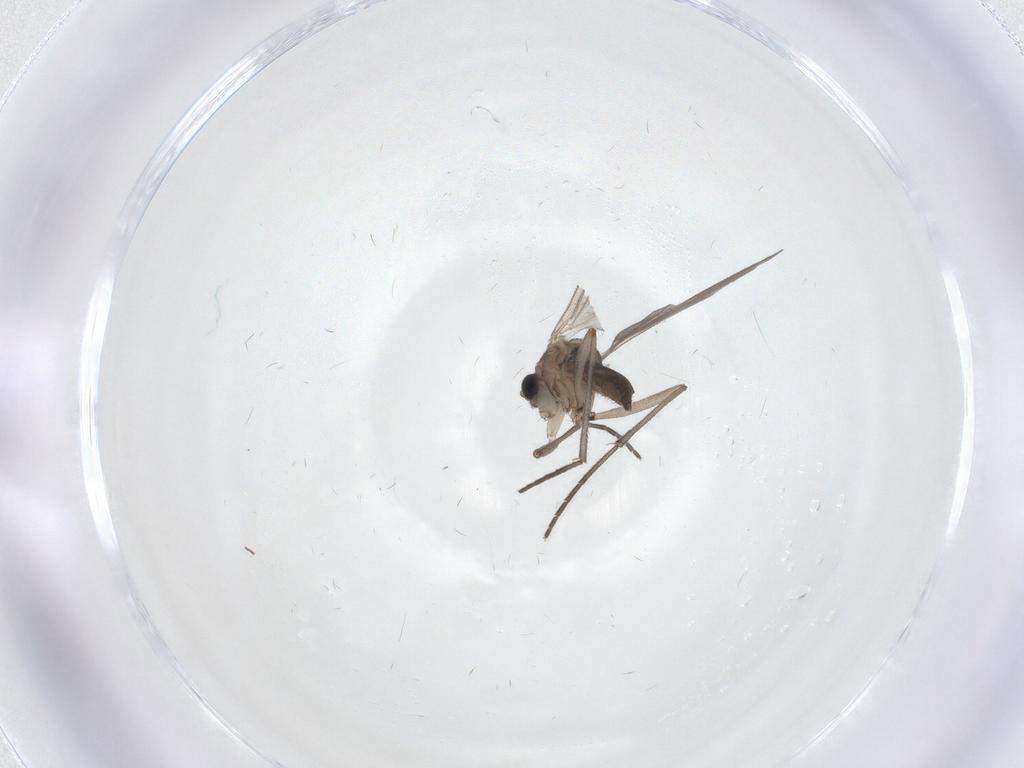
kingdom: Animalia
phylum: Arthropoda
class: Insecta
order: Diptera
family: Sciaridae
